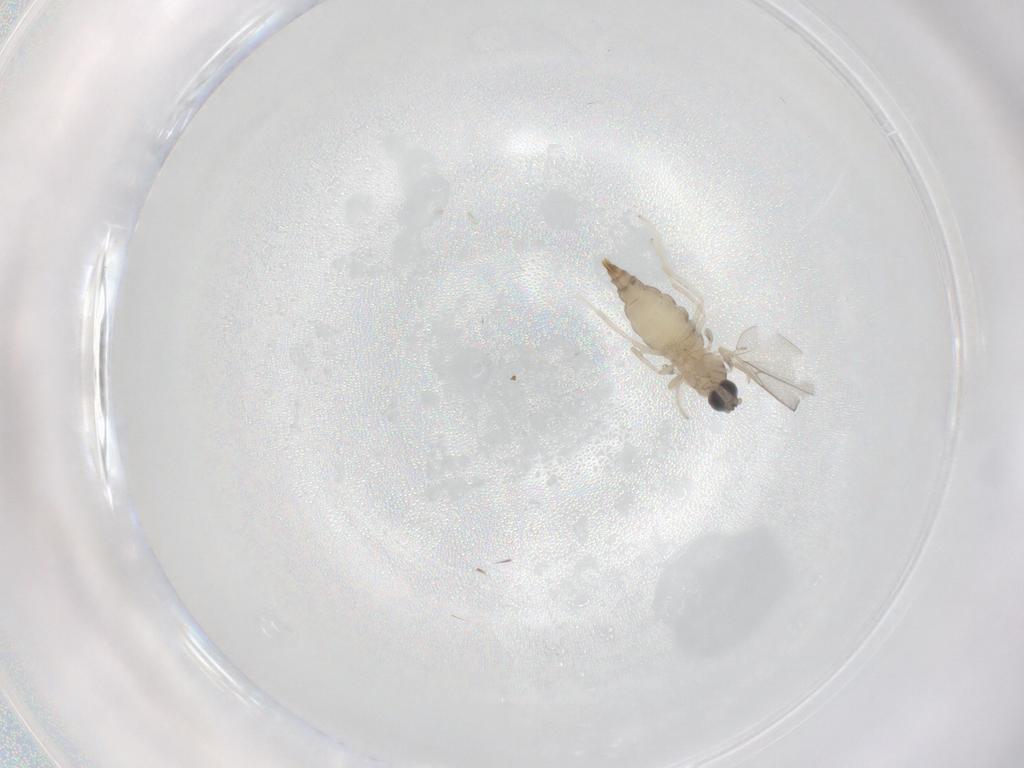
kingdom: Animalia
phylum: Arthropoda
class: Insecta
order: Diptera
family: Cecidomyiidae
